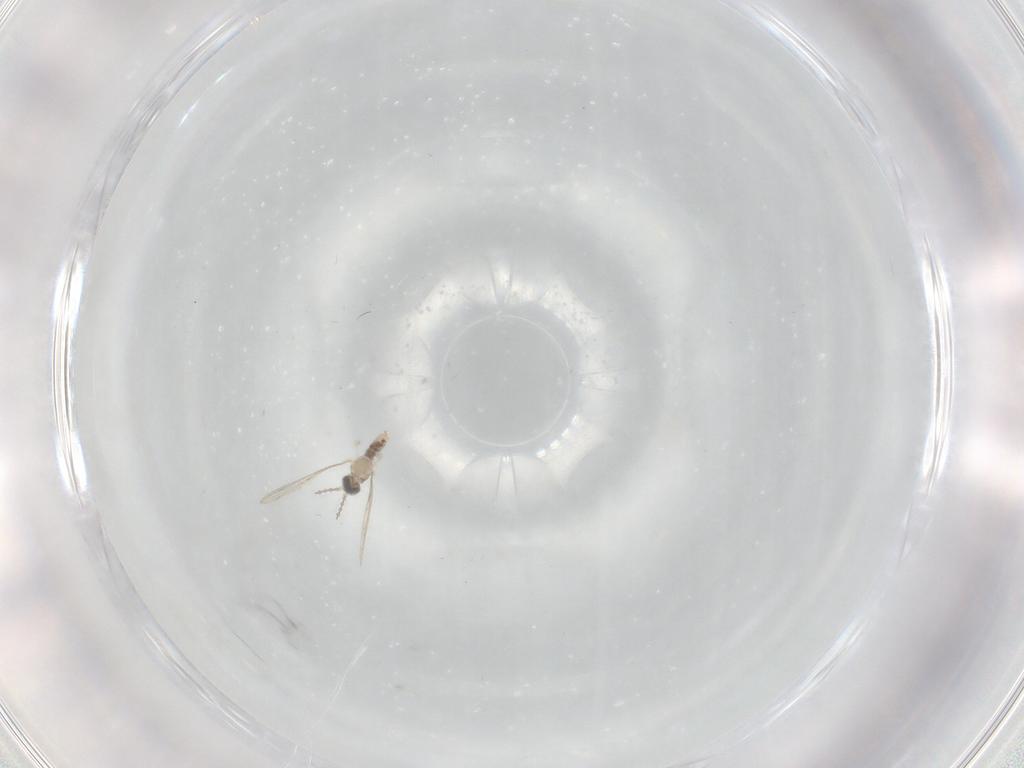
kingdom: Animalia
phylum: Arthropoda
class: Insecta
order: Diptera
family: Cecidomyiidae
